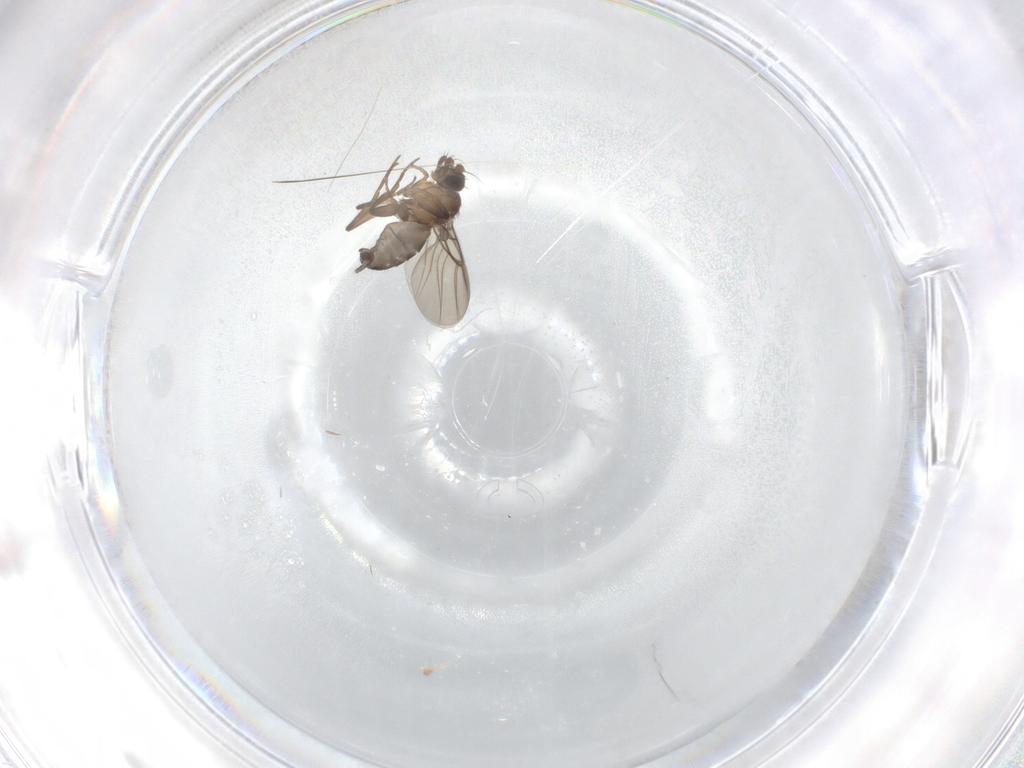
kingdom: Animalia
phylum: Arthropoda
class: Insecta
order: Diptera
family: Phoridae
